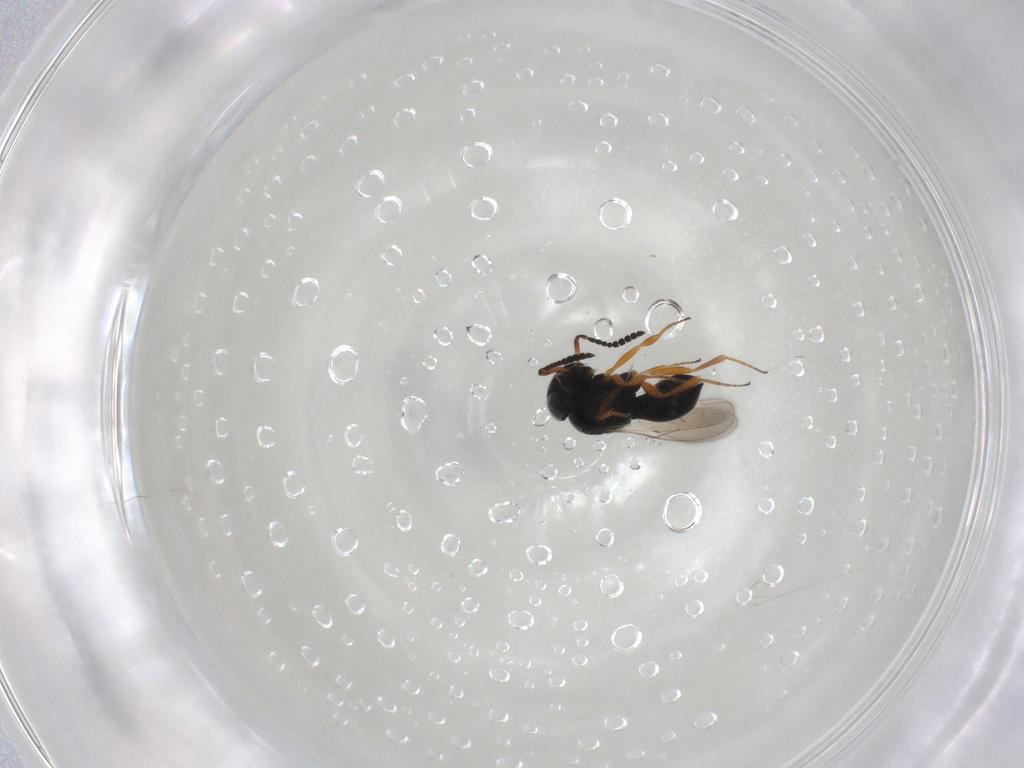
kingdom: Animalia
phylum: Arthropoda
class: Insecta
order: Hymenoptera
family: Scelionidae
